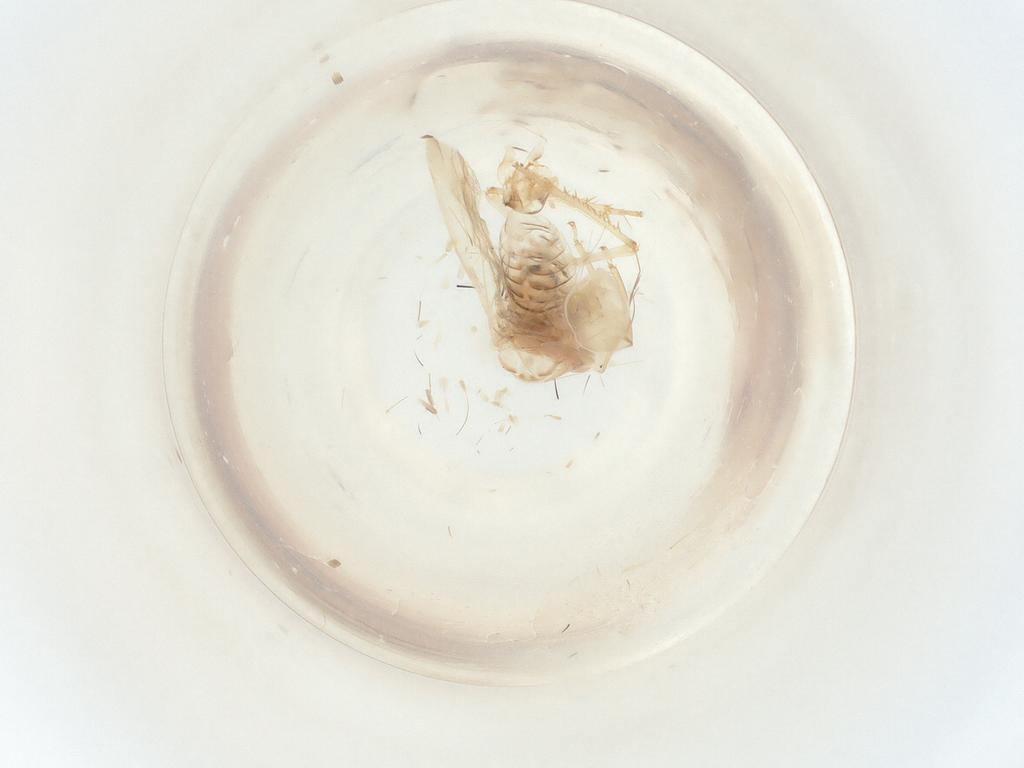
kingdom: Animalia
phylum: Arthropoda
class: Insecta
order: Hemiptera
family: Cicadellidae
